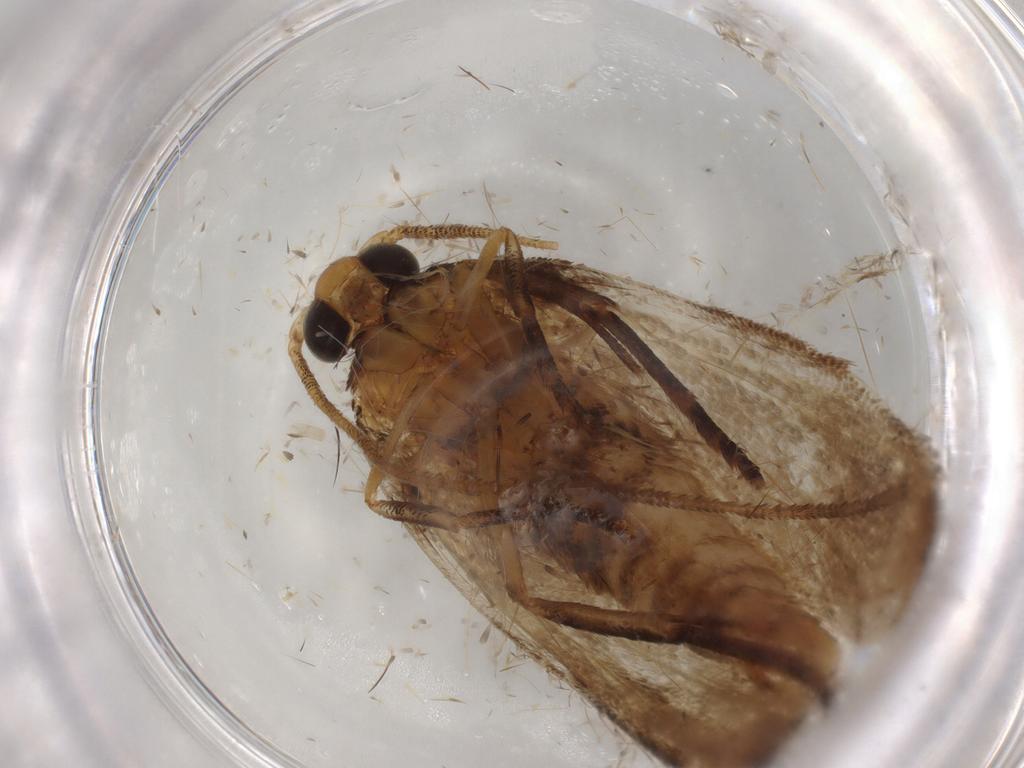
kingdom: Animalia
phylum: Arthropoda
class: Insecta
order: Lepidoptera
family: Oecophoridae
